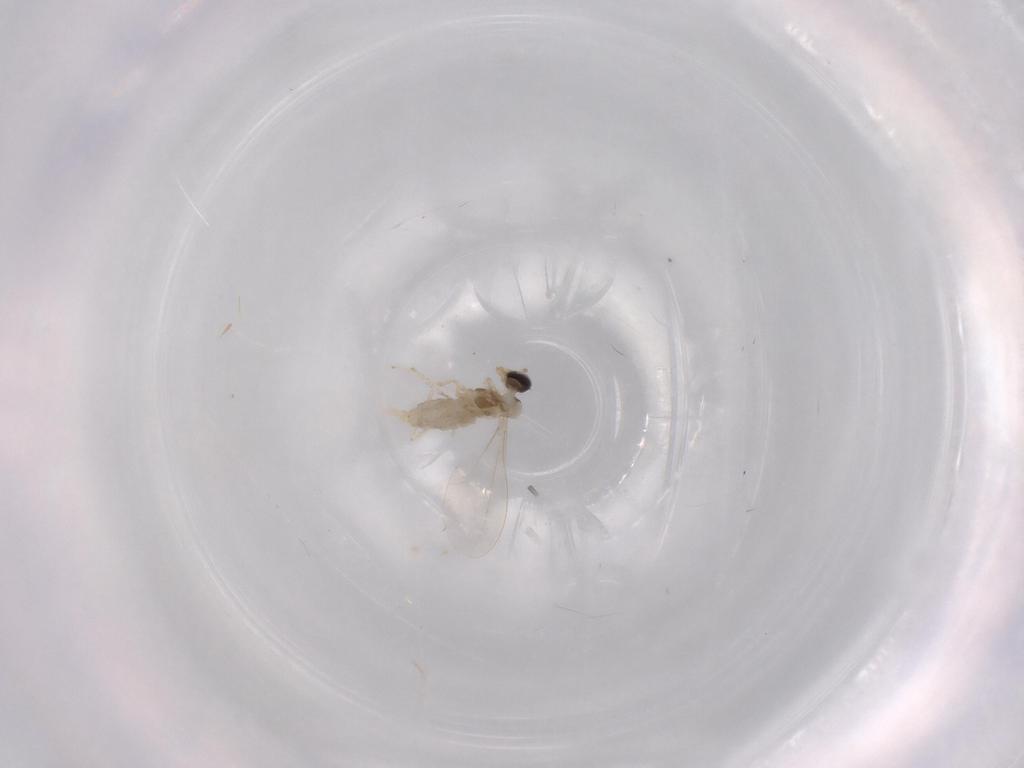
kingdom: Animalia
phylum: Arthropoda
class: Insecta
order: Diptera
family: Cecidomyiidae
